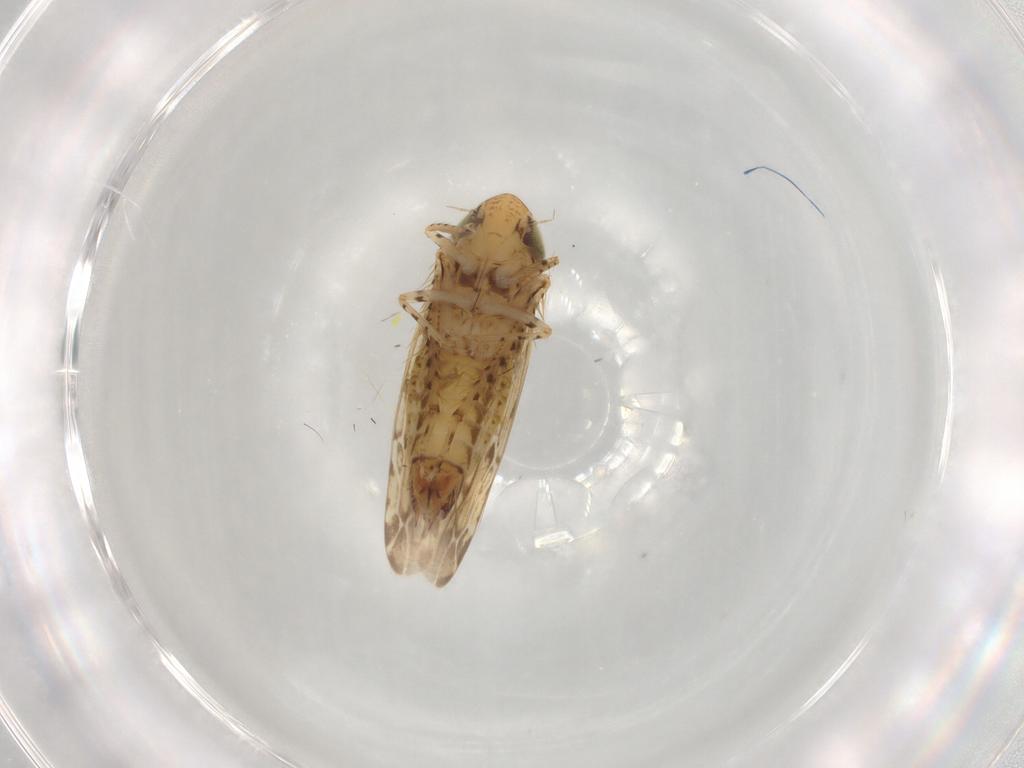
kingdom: Animalia
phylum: Arthropoda
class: Insecta
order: Hemiptera
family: Cicadellidae
